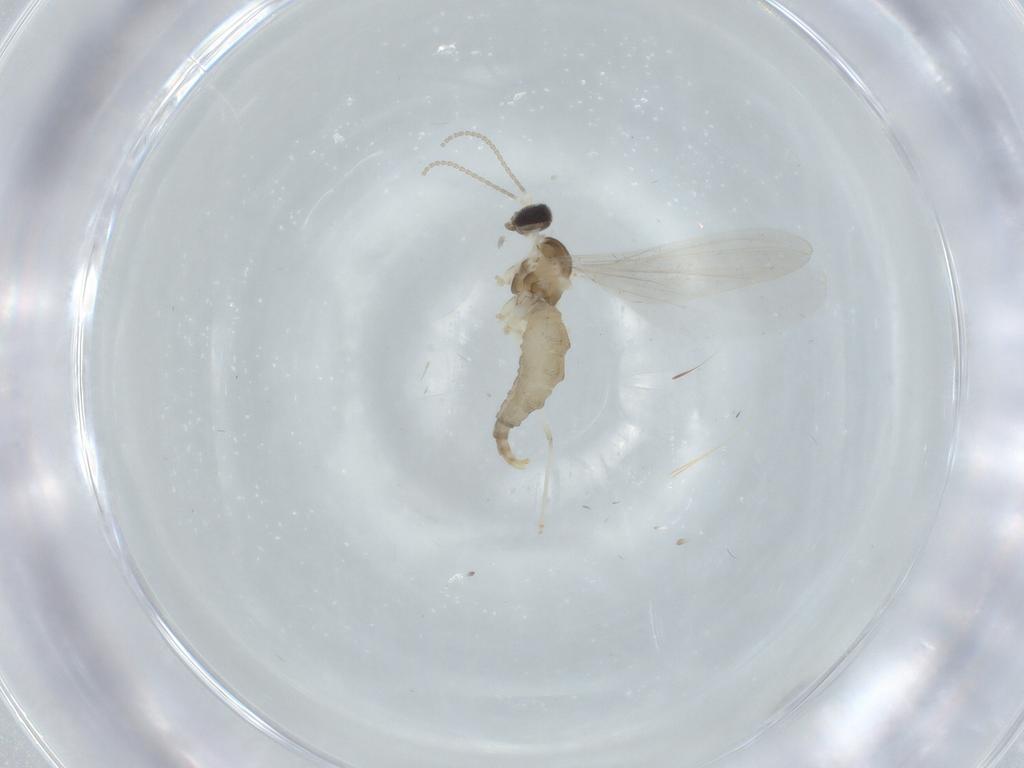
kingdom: Animalia
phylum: Arthropoda
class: Insecta
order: Diptera
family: Cecidomyiidae
